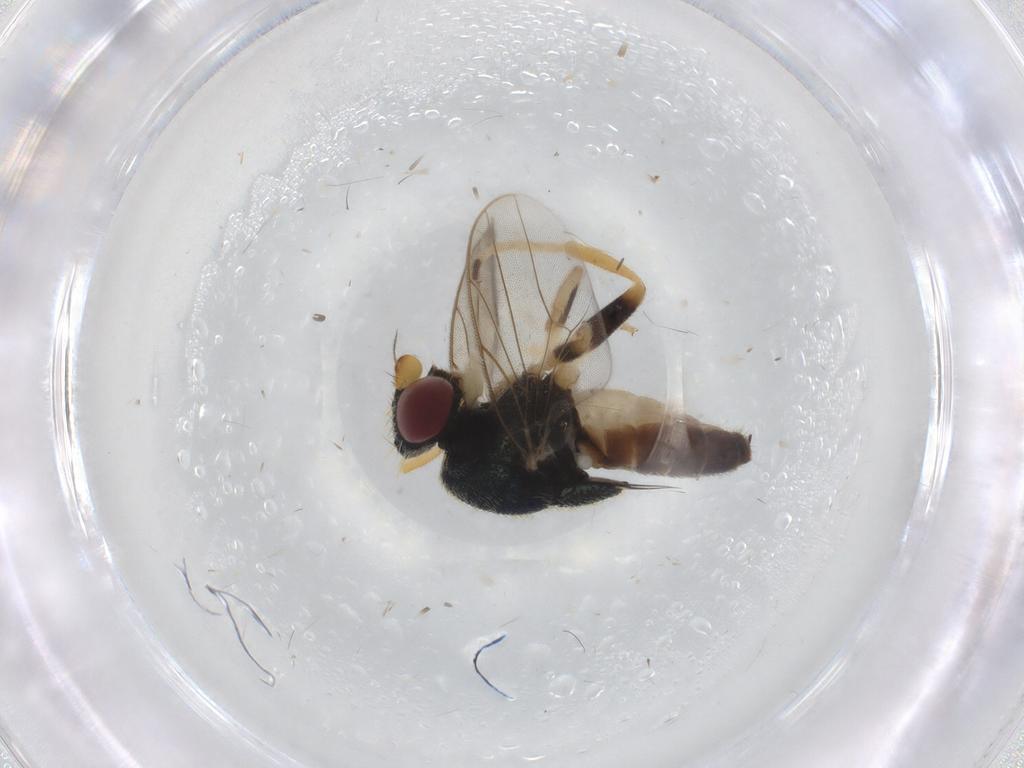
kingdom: Animalia
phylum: Arthropoda
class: Insecta
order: Diptera
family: Chloropidae
